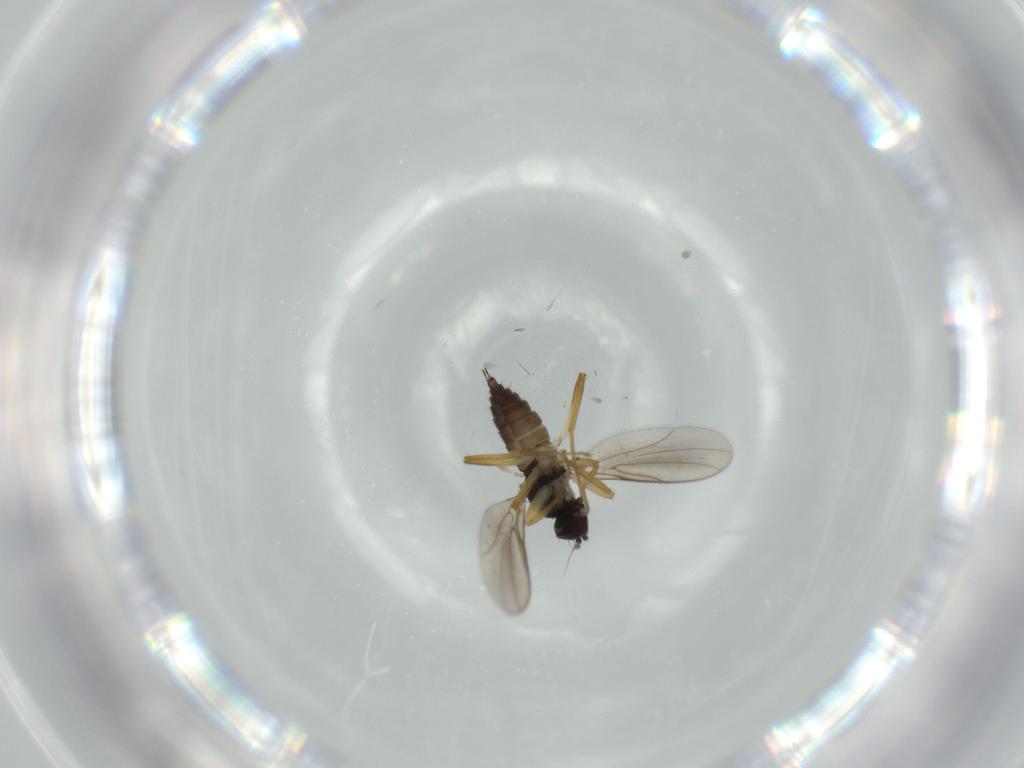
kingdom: Animalia
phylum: Arthropoda
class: Insecta
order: Diptera
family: Hybotidae
